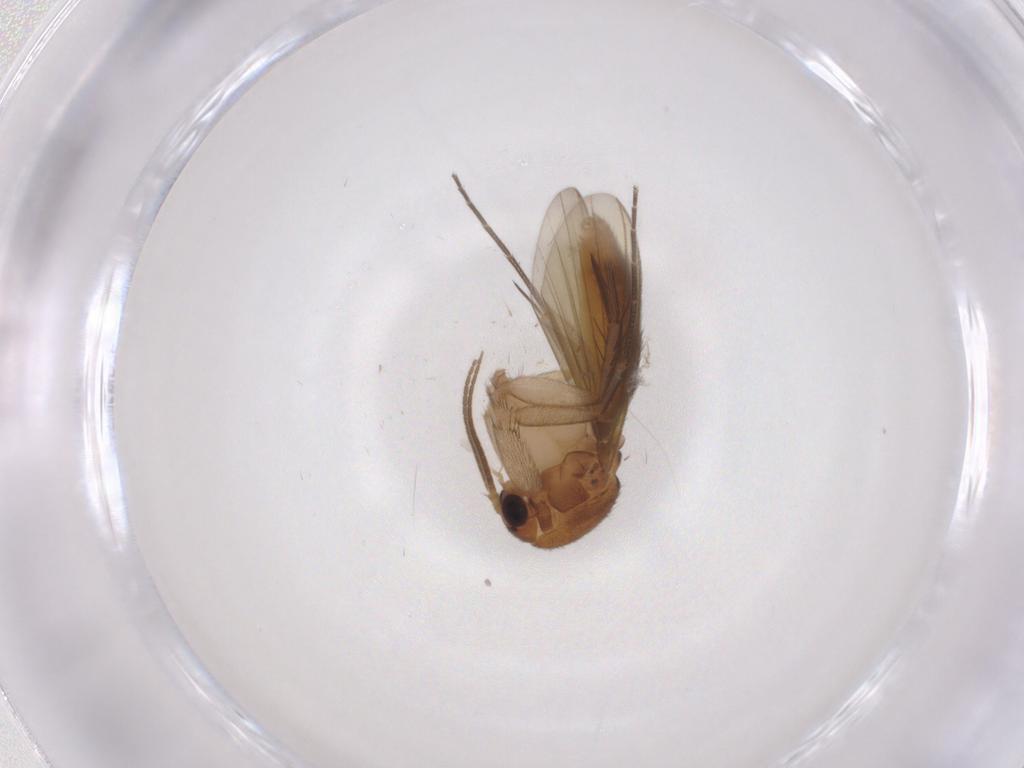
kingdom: Animalia
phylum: Arthropoda
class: Insecta
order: Diptera
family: Mycetophilidae
